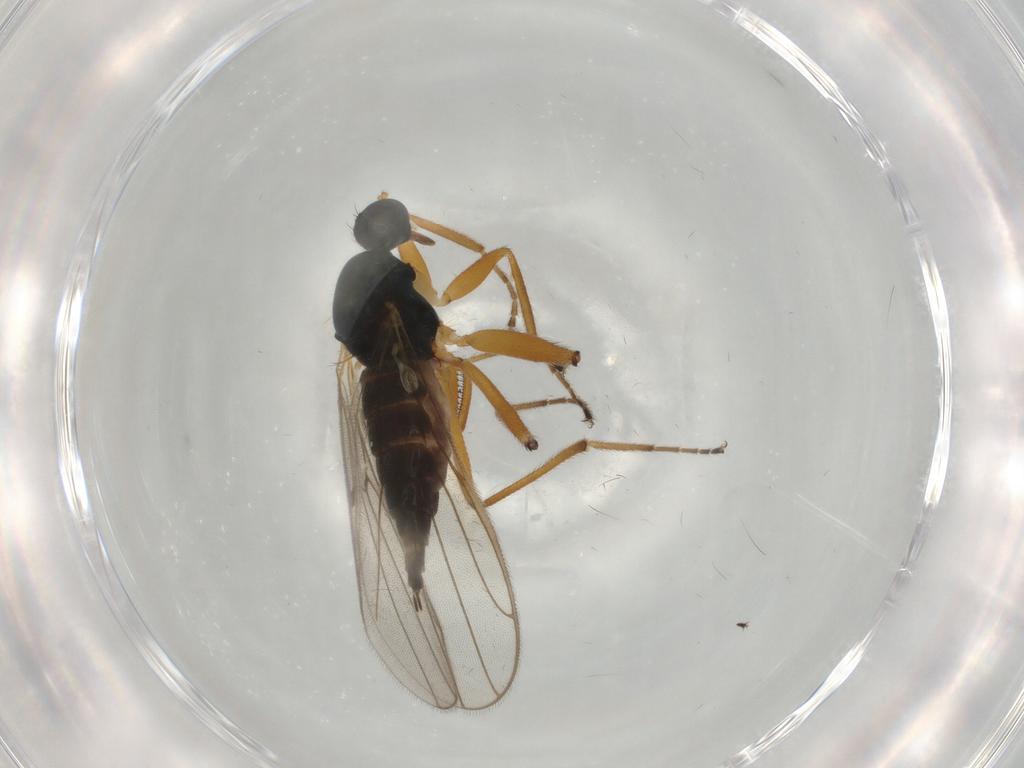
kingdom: Animalia
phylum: Arthropoda
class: Insecta
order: Diptera
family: Hybotidae
